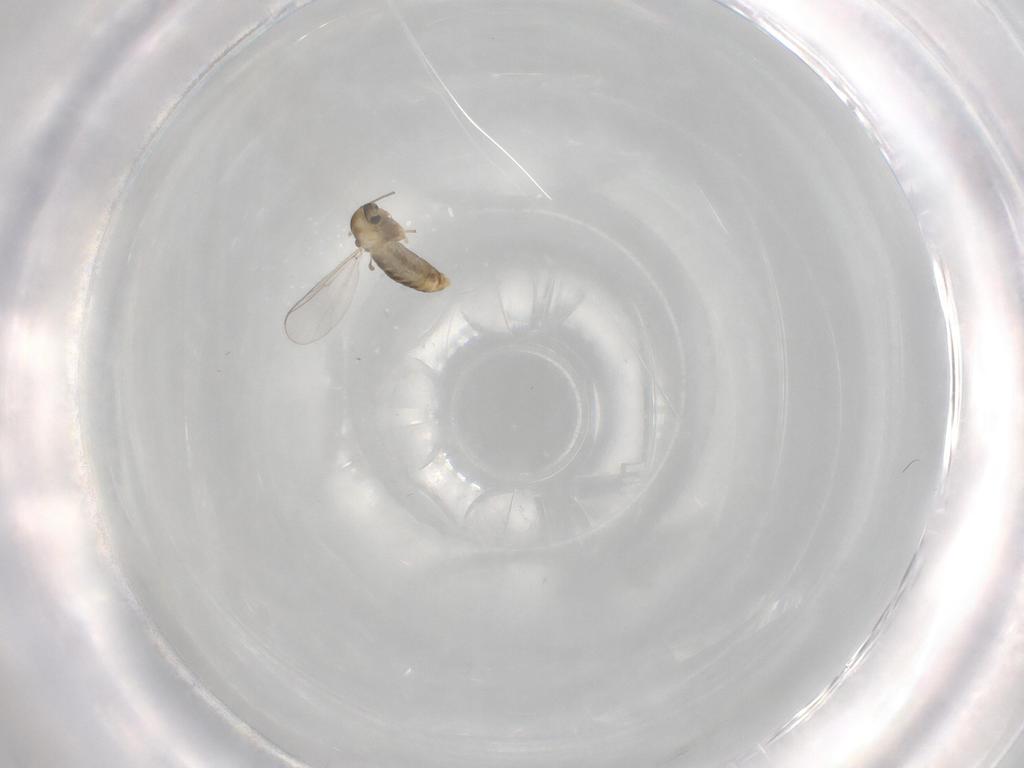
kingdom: Animalia
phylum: Arthropoda
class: Insecta
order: Diptera
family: Chironomidae
